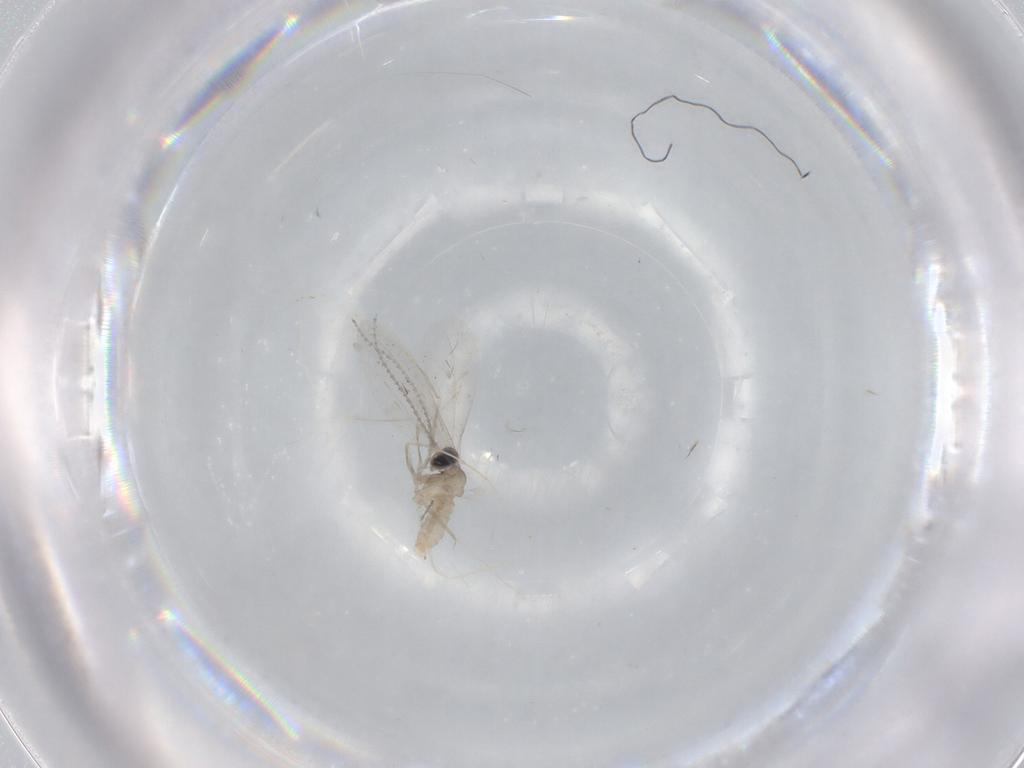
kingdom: Animalia
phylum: Arthropoda
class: Insecta
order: Diptera
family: Cecidomyiidae
